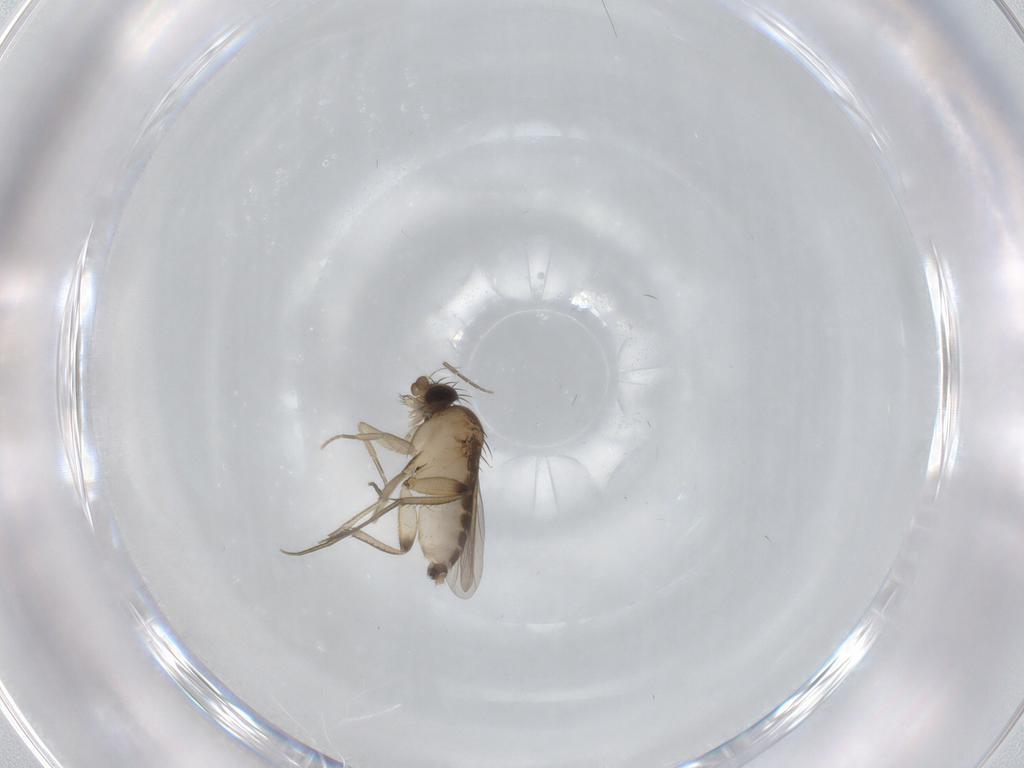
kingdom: Animalia
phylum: Arthropoda
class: Insecta
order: Diptera
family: Phoridae
